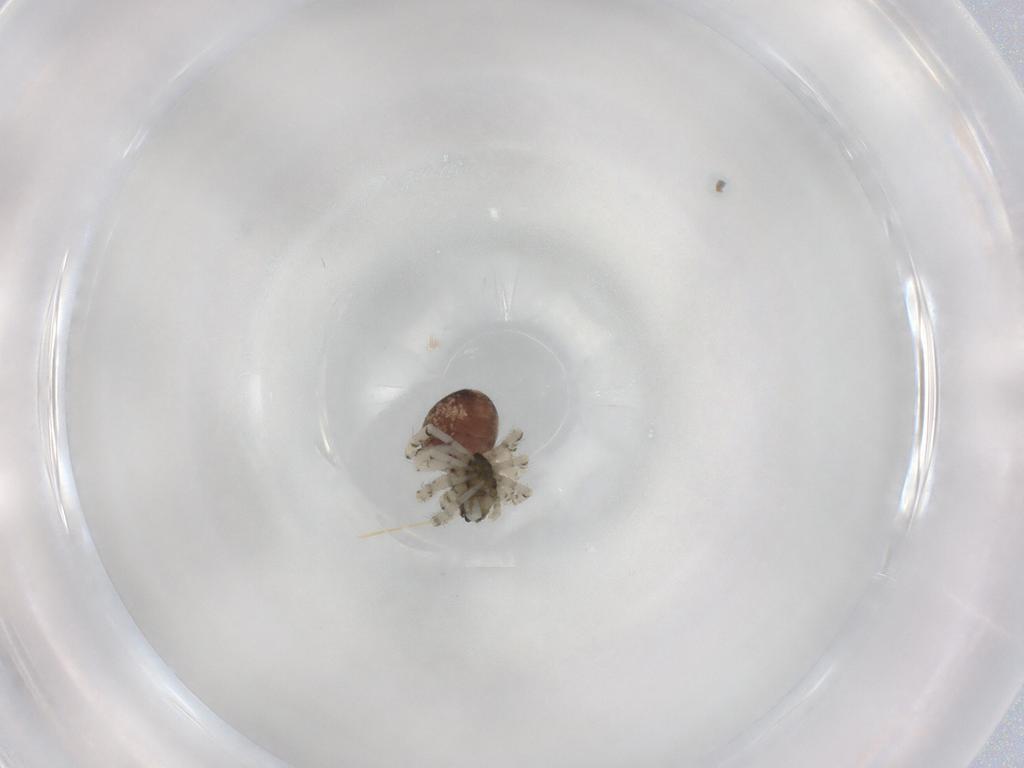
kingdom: Animalia
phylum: Arthropoda
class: Arachnida
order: Araneae
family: Theridiidae
